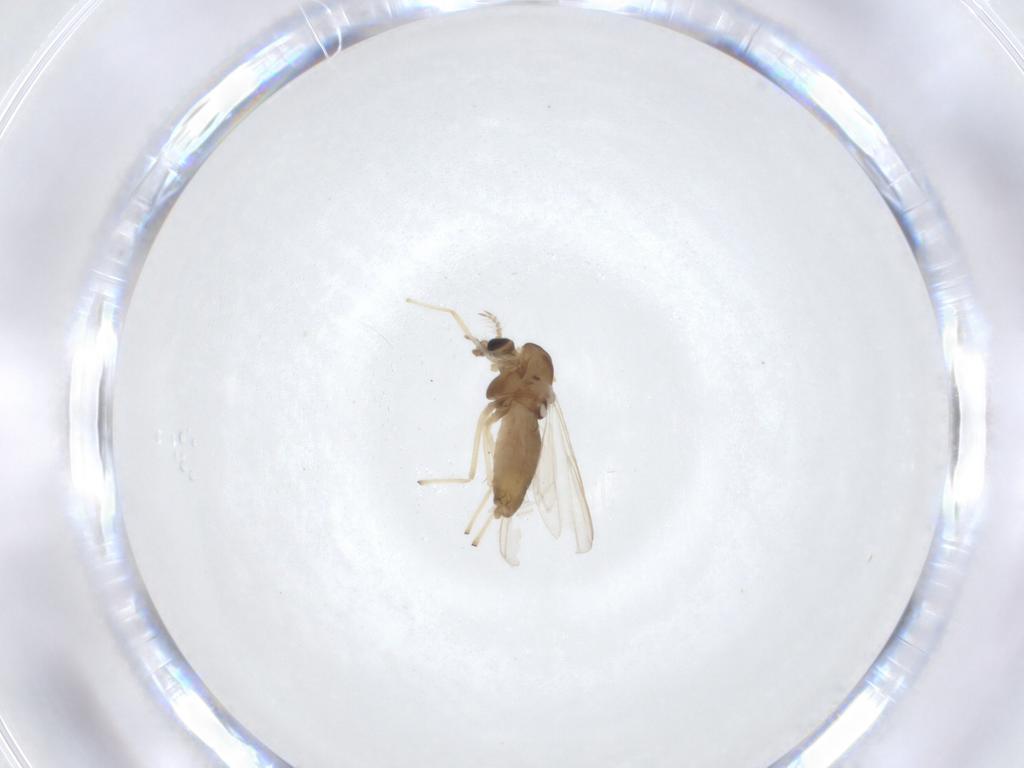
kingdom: Animalia
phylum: Arthropoda
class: Insecta
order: Diptera
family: Chironomidae
